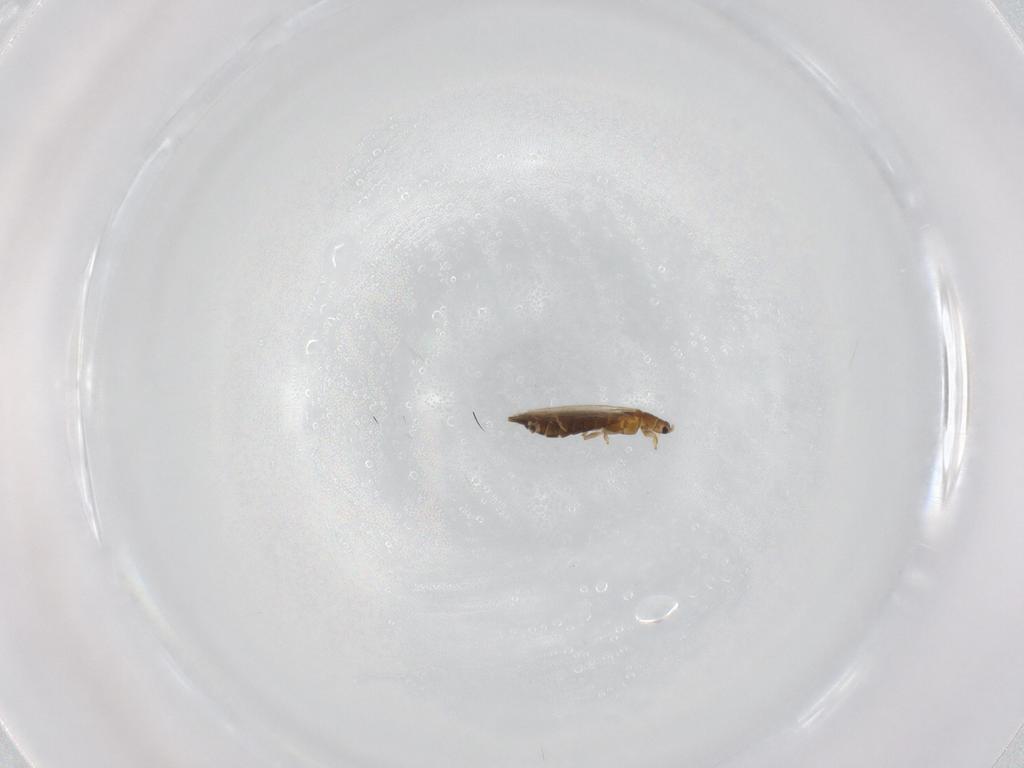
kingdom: Animalia
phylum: Arthropoda
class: Insecta
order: Thysanoptera
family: Thripidae
